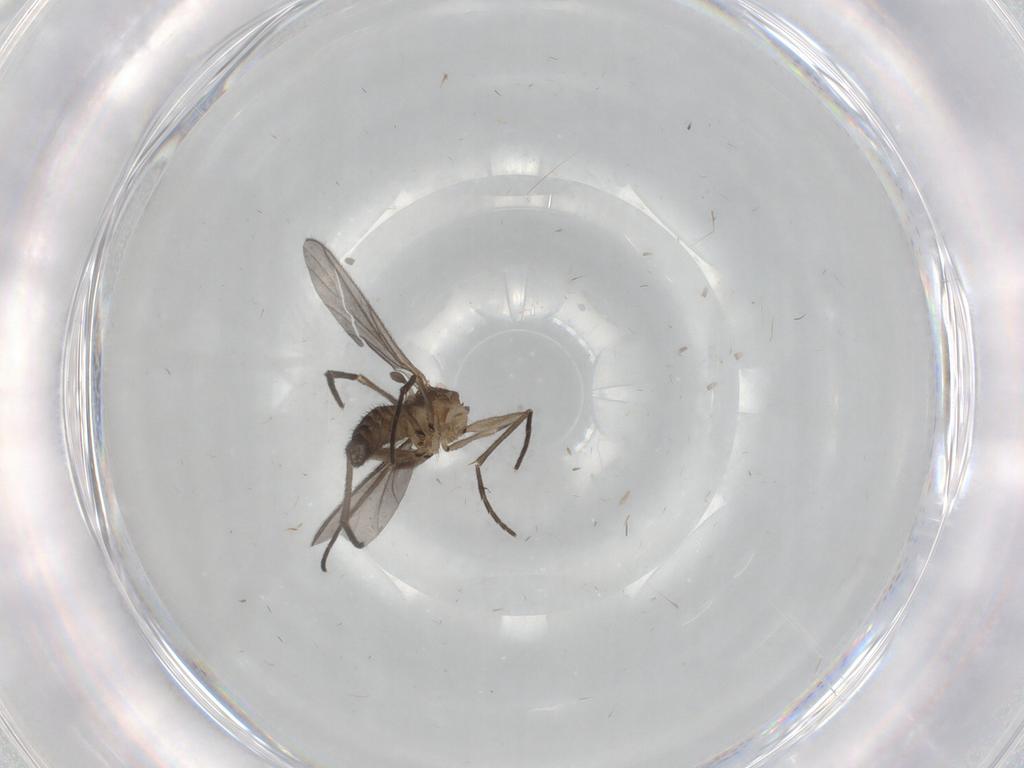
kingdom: Animalia
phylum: Arthropoda
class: Insecta
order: Diptera
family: Sciaridae
